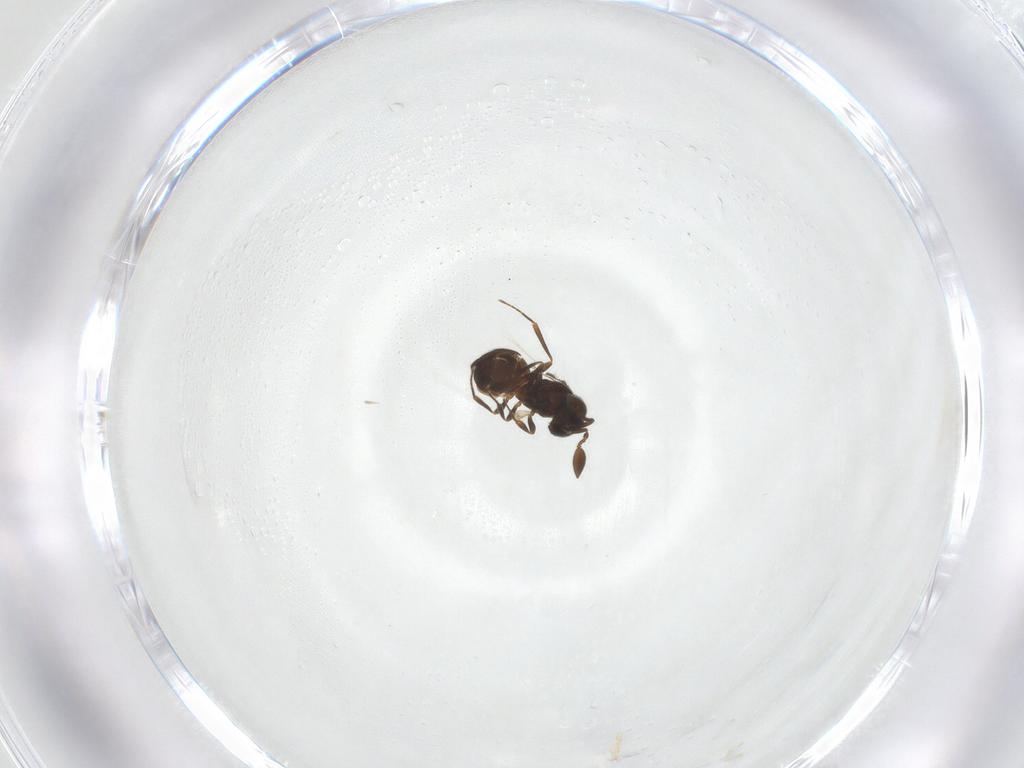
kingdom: Animalia
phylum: Arthropoda
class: Insecta
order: Hymenoptera
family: Scelionidae
